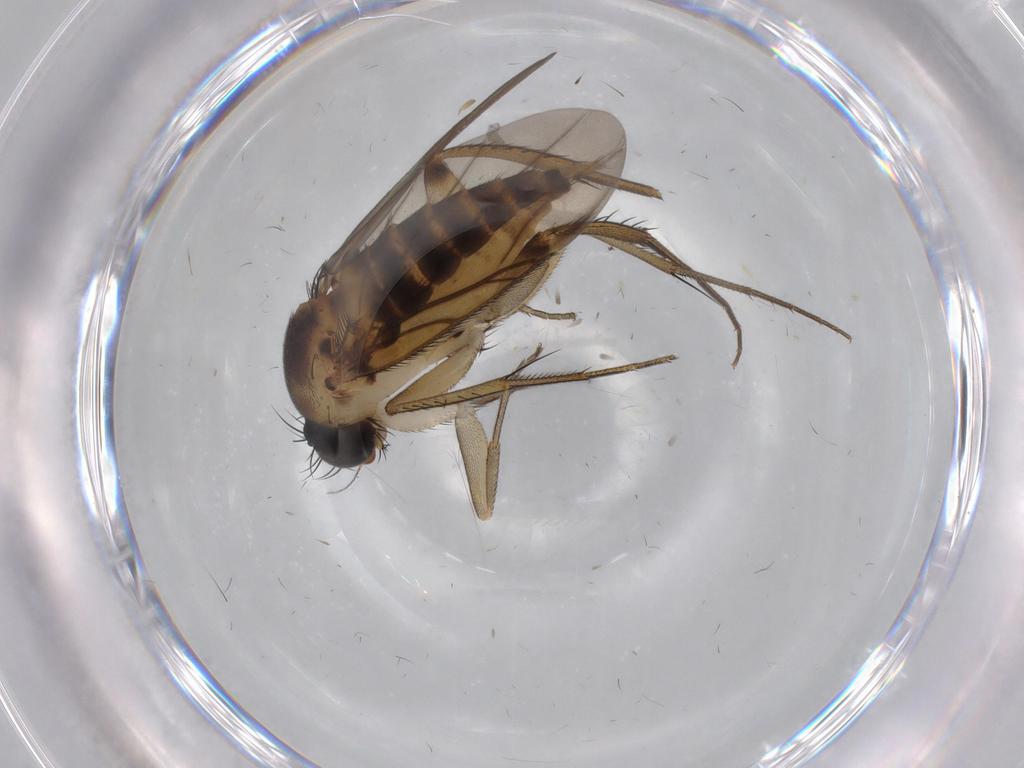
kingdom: Animalia
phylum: Arthropoda
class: Insecta
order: Diptera
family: Phoridae
